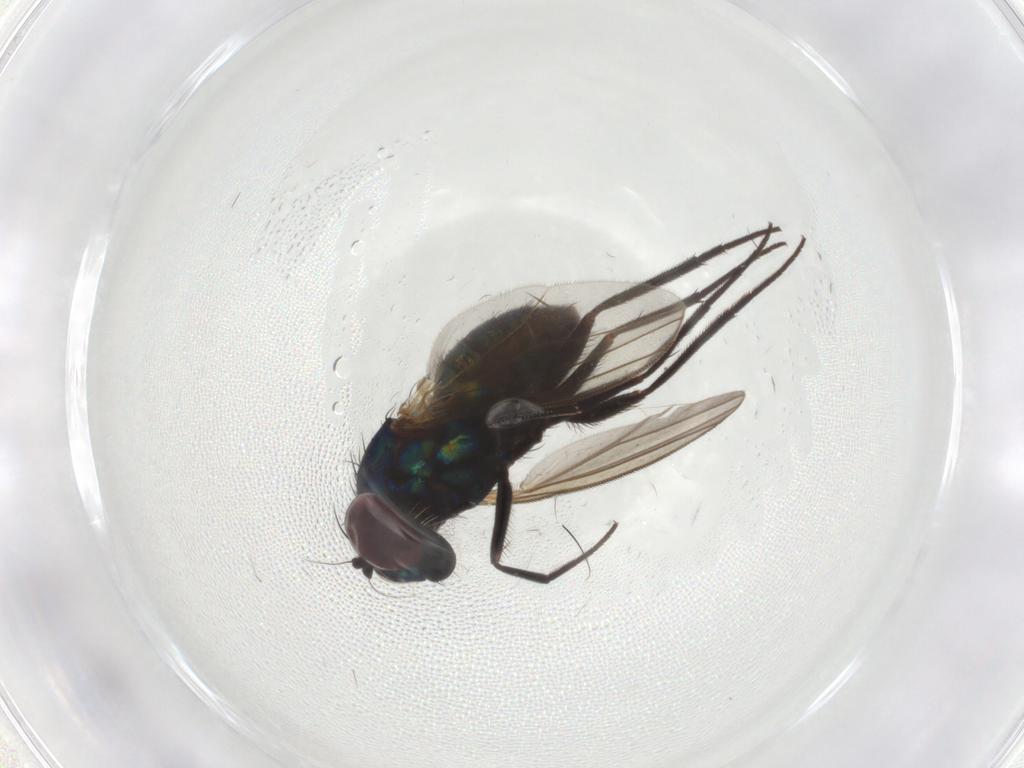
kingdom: Animalia
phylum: Arthropoda
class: Insecta
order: Diptera
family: Dolichopodidae
